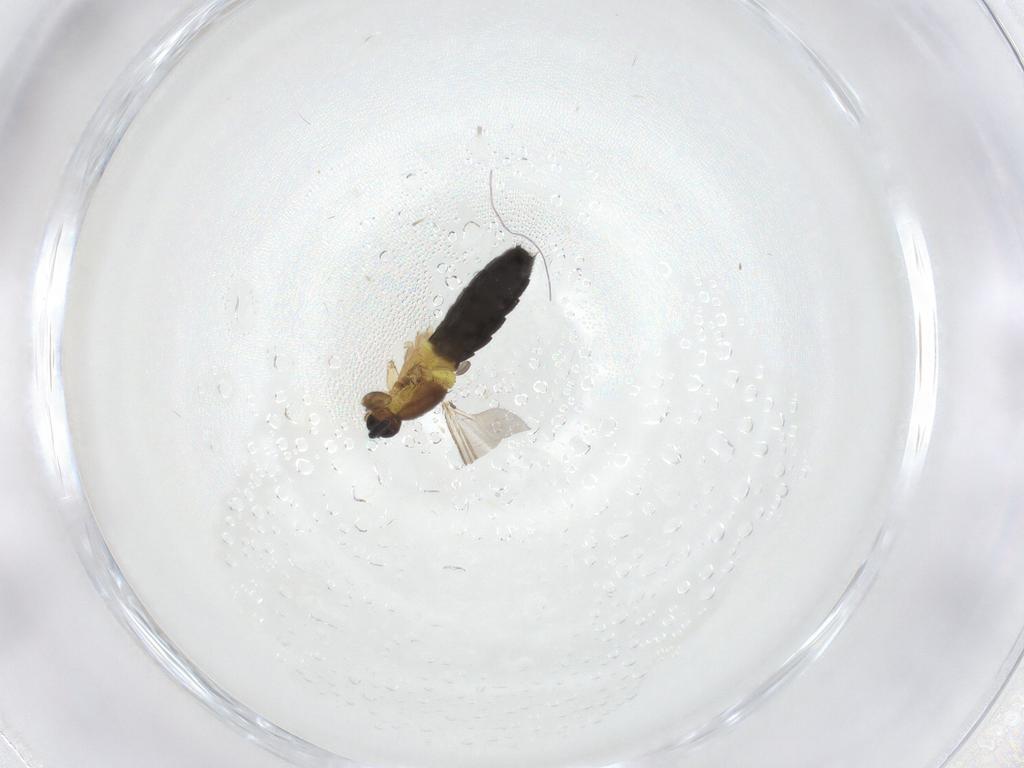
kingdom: Animalia
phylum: Arthropoda
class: Insecta
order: Diptera
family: Scatopsidae
